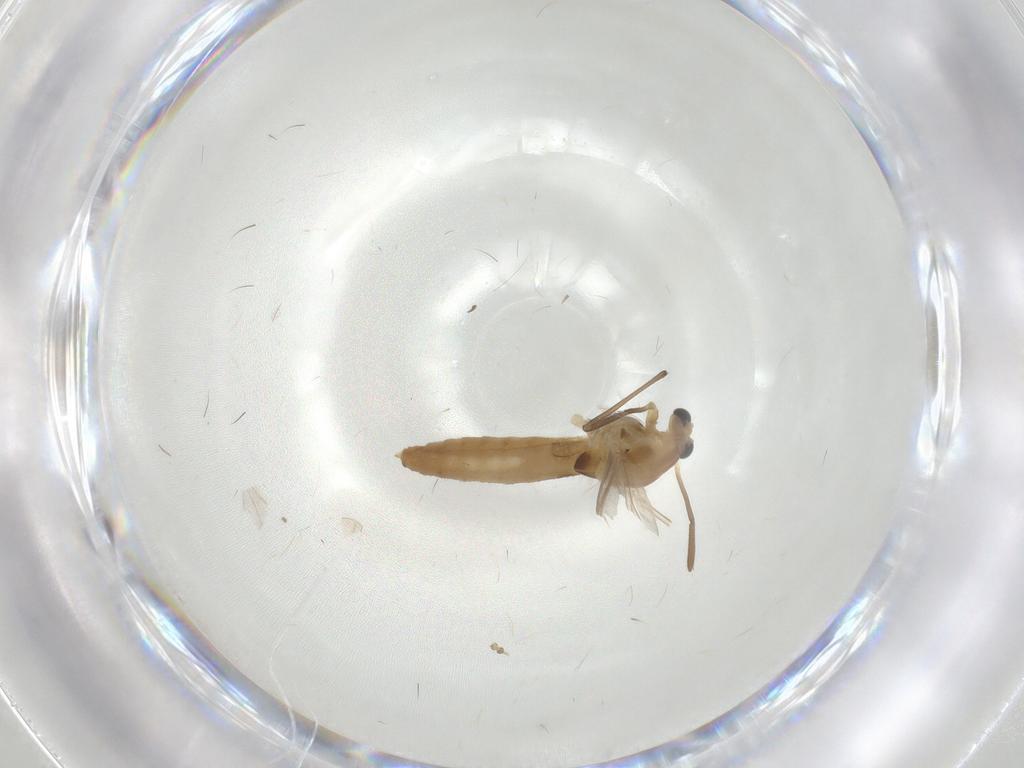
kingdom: Animalia
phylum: Arthropoda
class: Insecta
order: Diptera
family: Chironomidae
